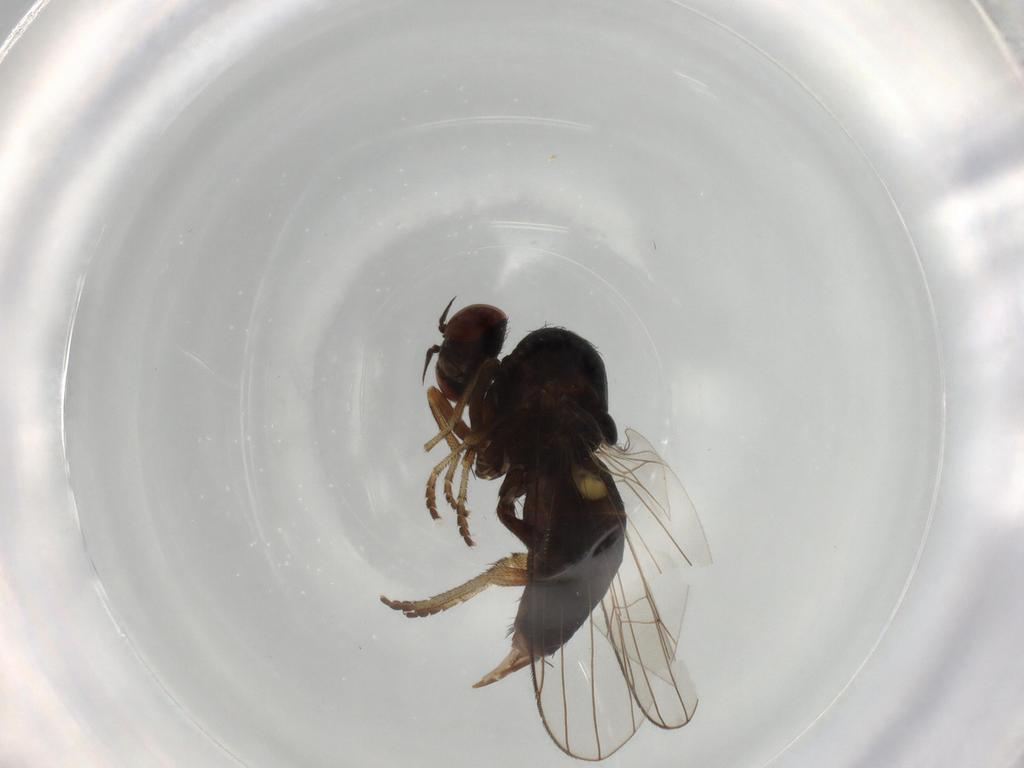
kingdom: Animalia
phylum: Arthropoda
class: Insecta
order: Diptera
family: Platypezidae
